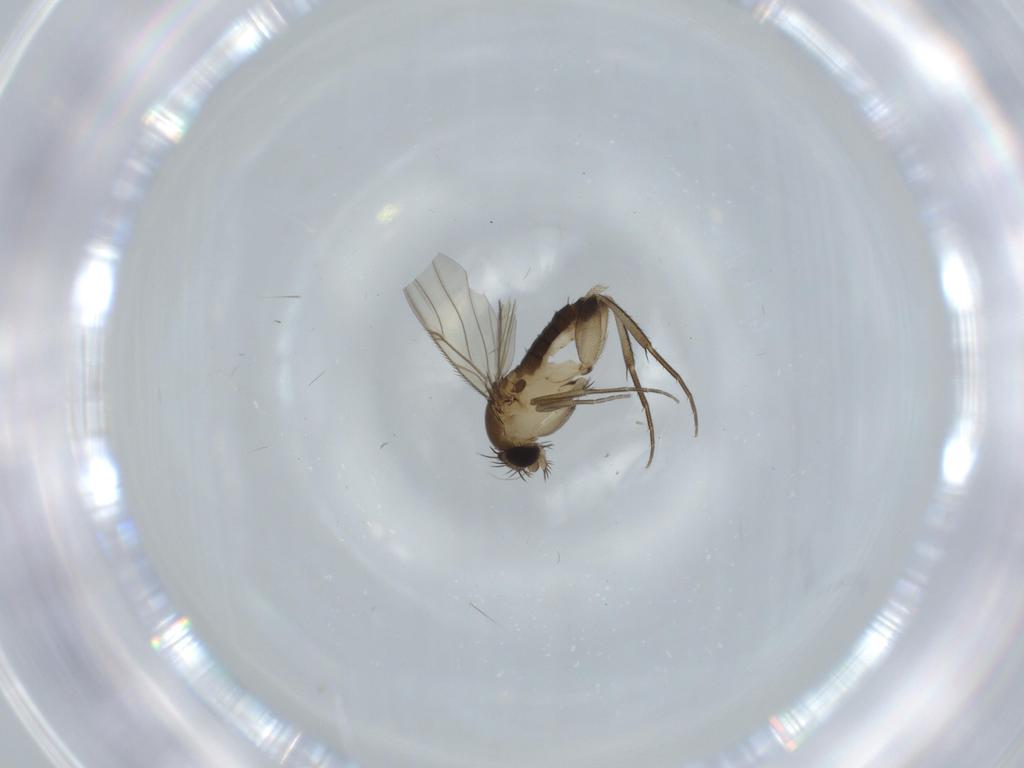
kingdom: Animalia
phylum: Arthropoda
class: Insecta
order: Diptera
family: Phoridae
